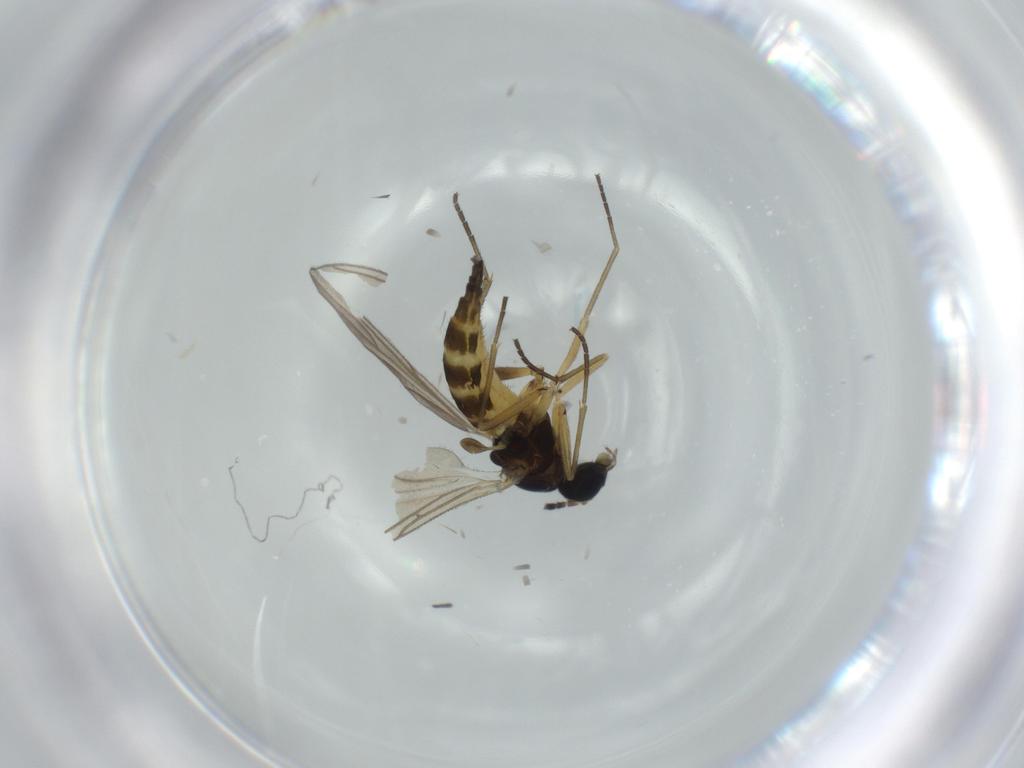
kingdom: Animalia
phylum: Arthropoda
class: Insecta
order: Diptera
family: Sciaridae
